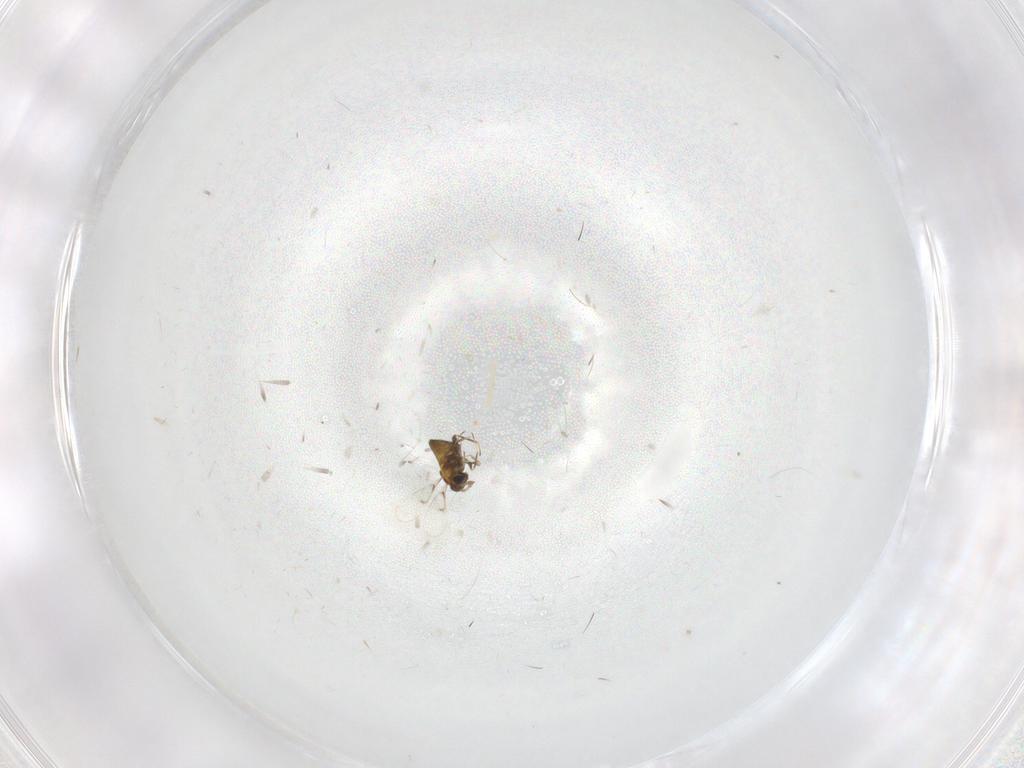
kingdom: Animalia
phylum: Arthropoda
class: Insecta
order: Hymenoptera
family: Trichogrammatidae
